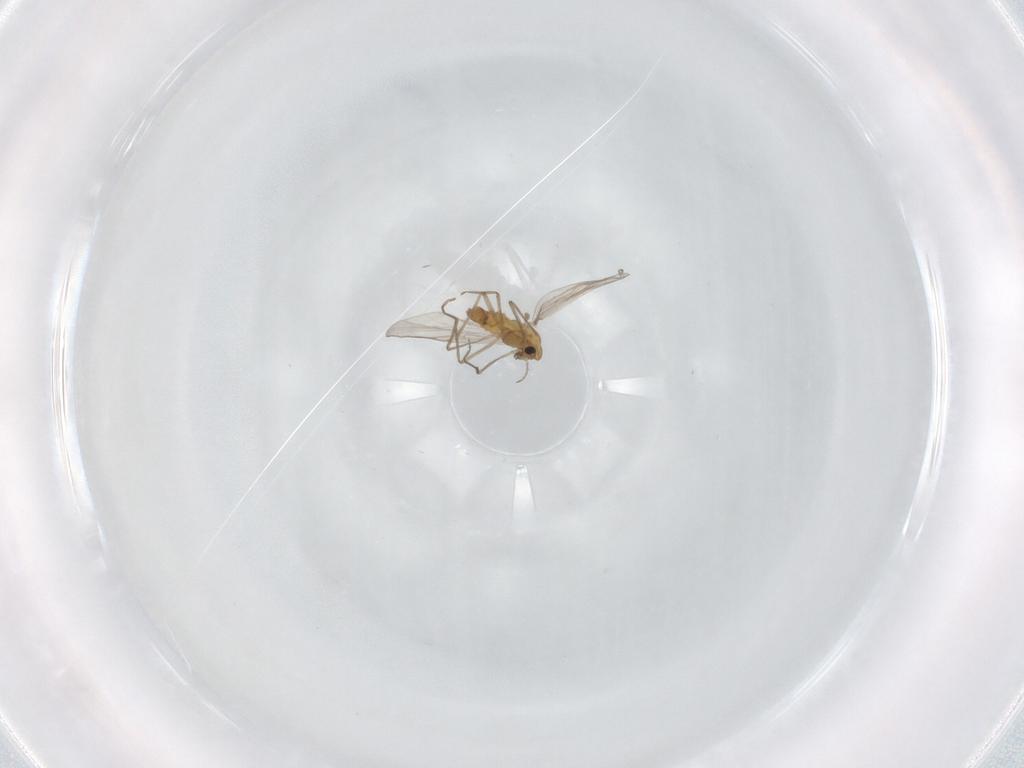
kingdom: Animalia
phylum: Arthropoda
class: Insecta
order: Diptera
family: Chironomidae
